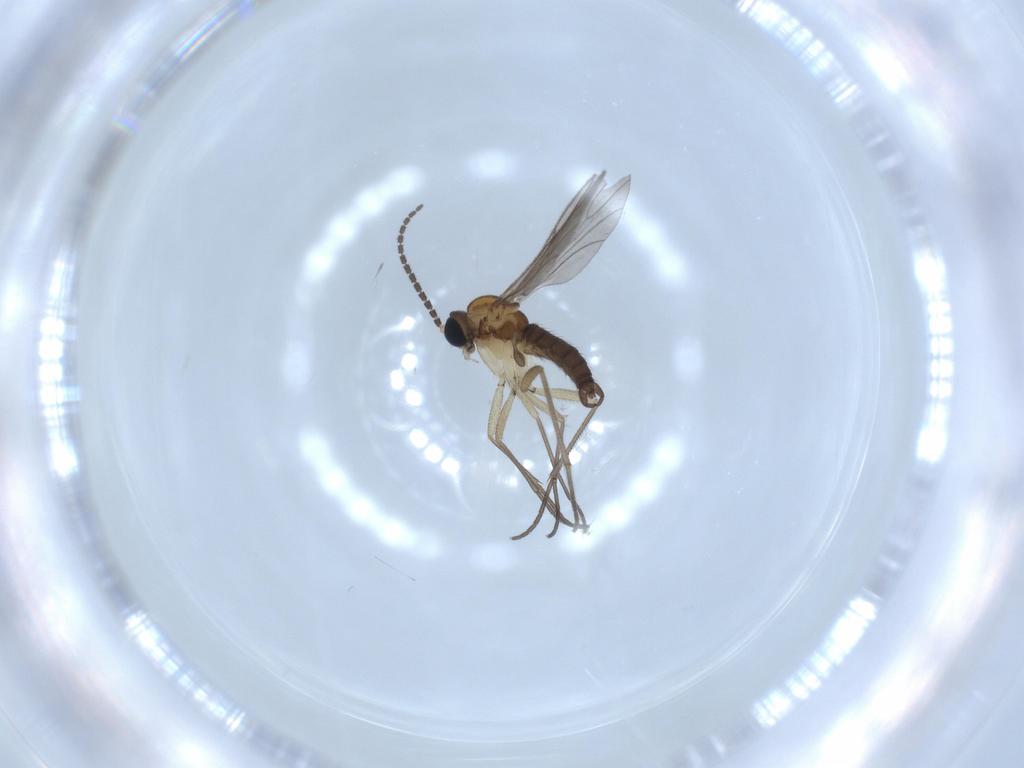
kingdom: Animalia
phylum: Arthropoda
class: Insecta
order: Diptera
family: Sciaridae
